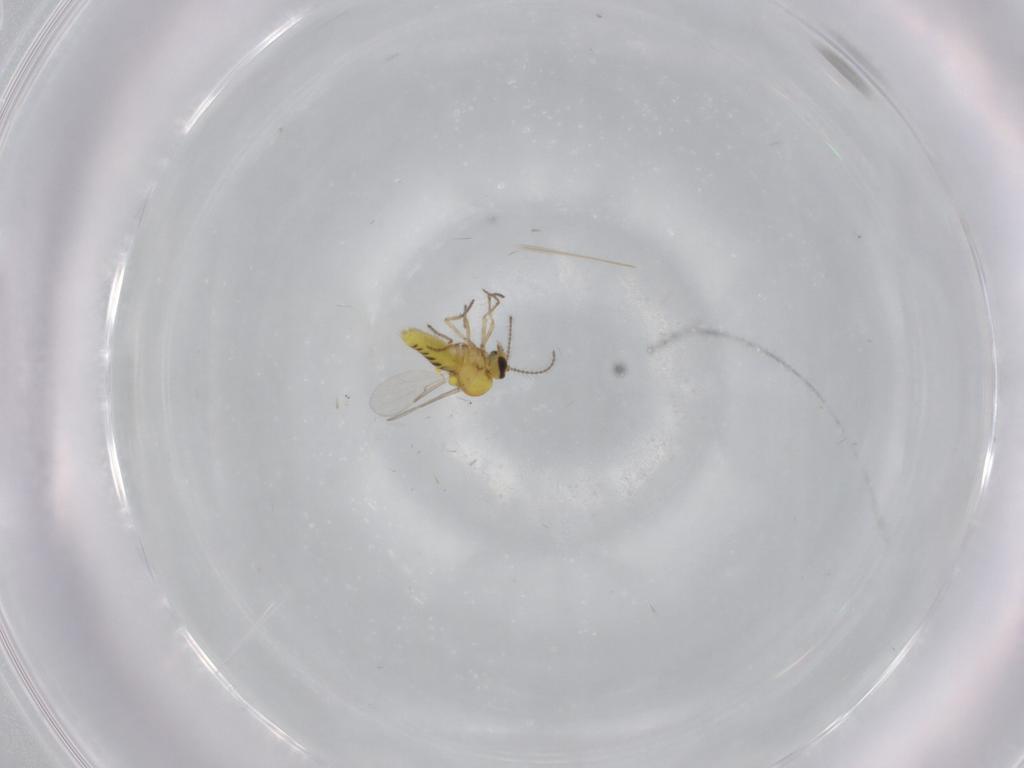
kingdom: Animalia
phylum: Arthropoda
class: Insecta
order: Diptera
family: Ceratopogonidae
